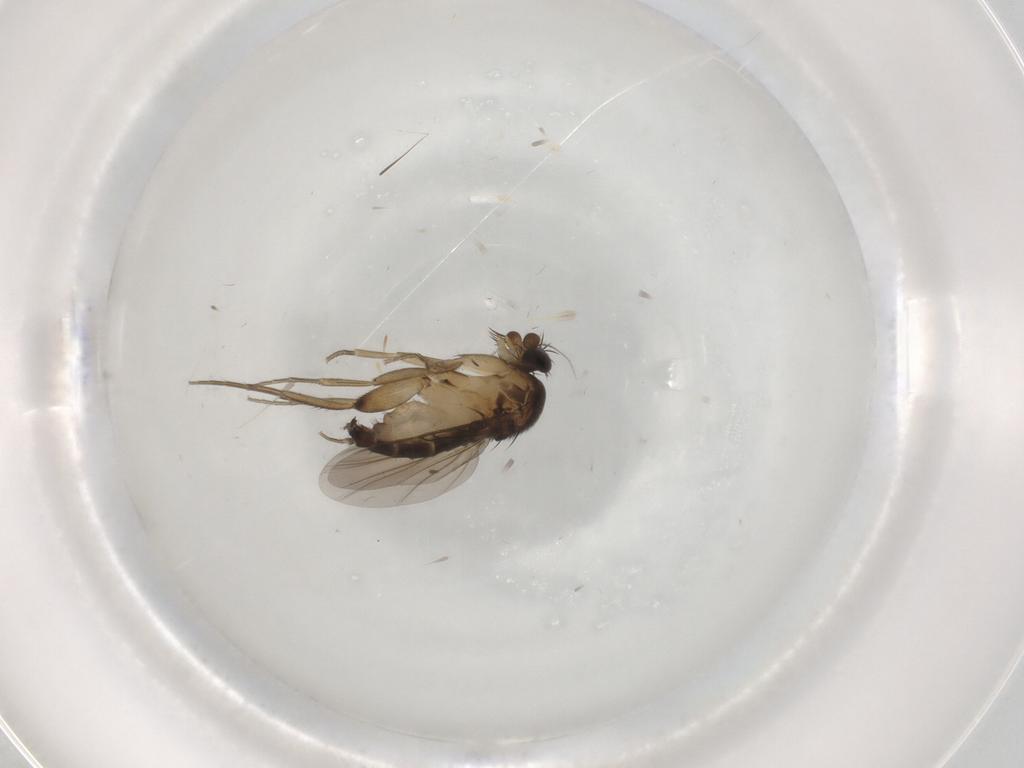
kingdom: Animalia
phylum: Arthropoda
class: Insecta
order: Diptera
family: Phoridae
